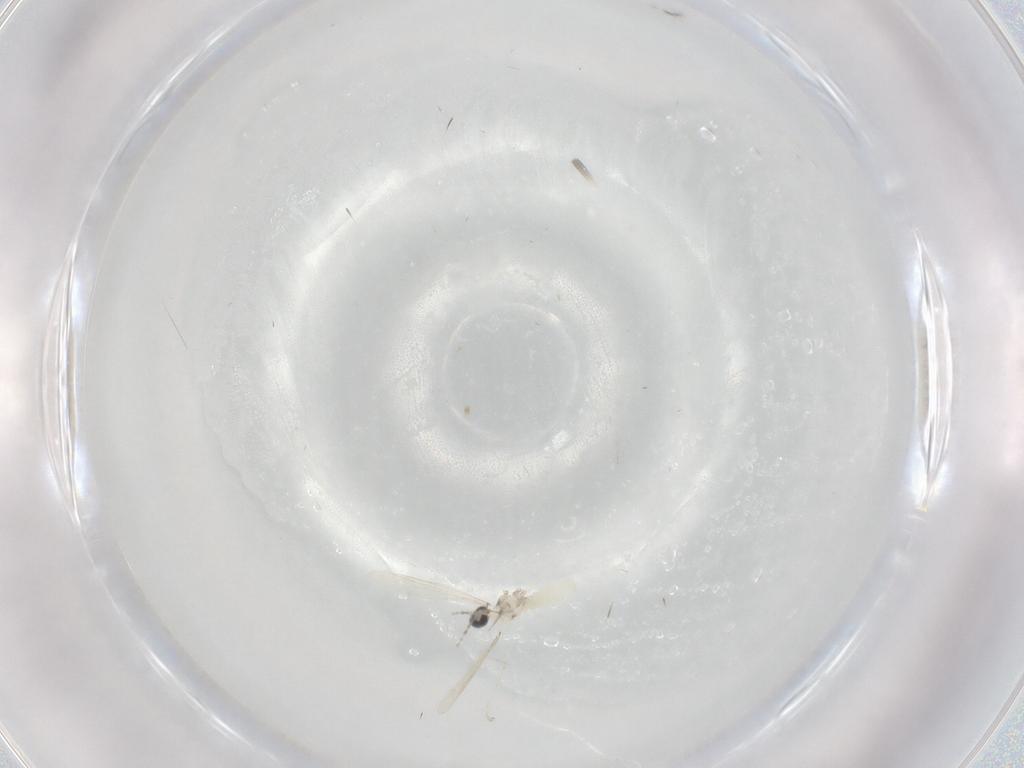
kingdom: Animalia
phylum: Arthropoda
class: Insecta
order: Diptera
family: Cecidomyiidae
